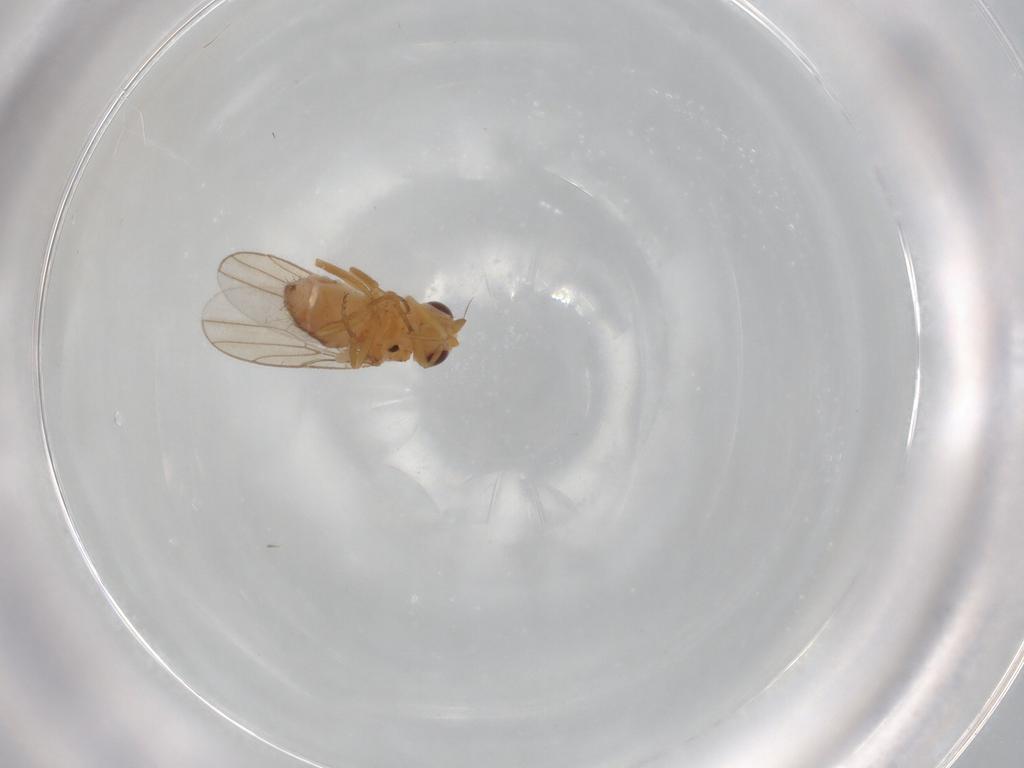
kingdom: Animalia
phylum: Arthropoda
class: Insecta
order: Diptera
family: Chloropidae
